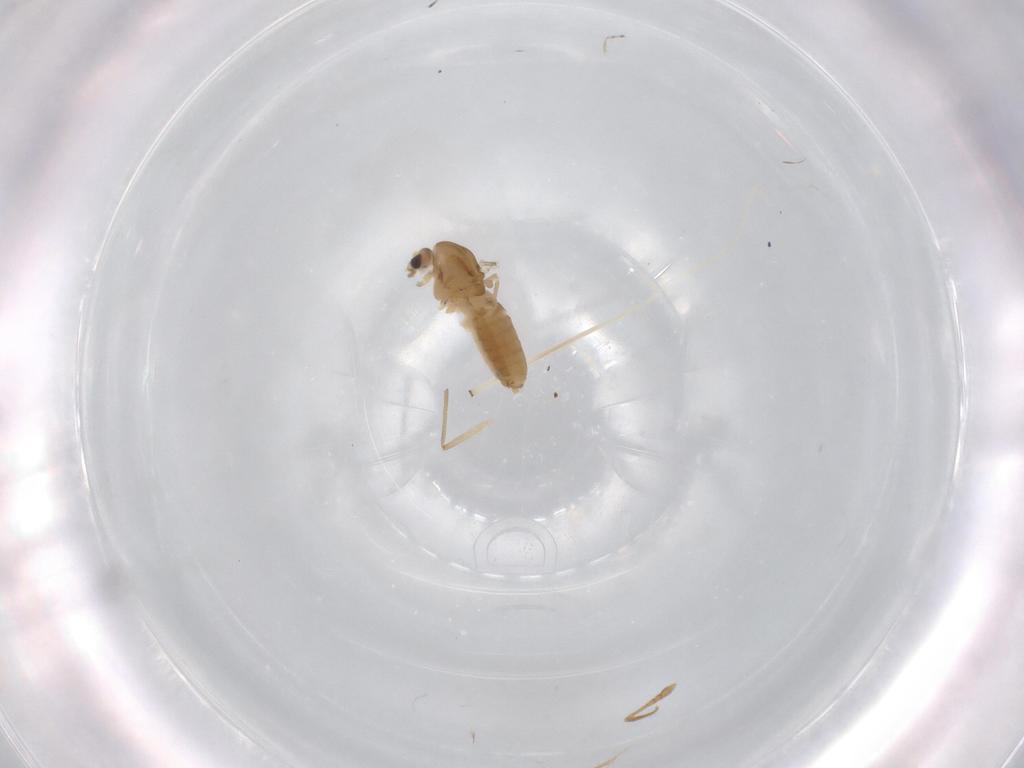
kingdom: Animalia
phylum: Arthropoda
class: Insecta
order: Diptera
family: Chironomidae
